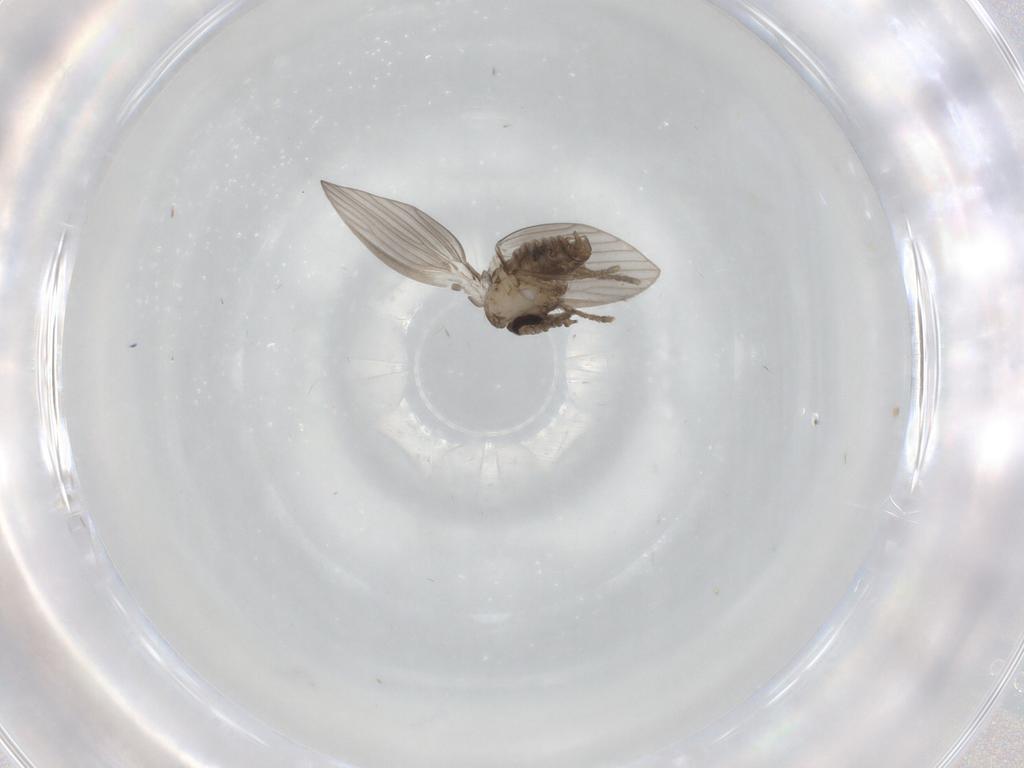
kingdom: Animalia
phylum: Arthropoda
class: Insecta
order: Diptera
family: Psychodidae
